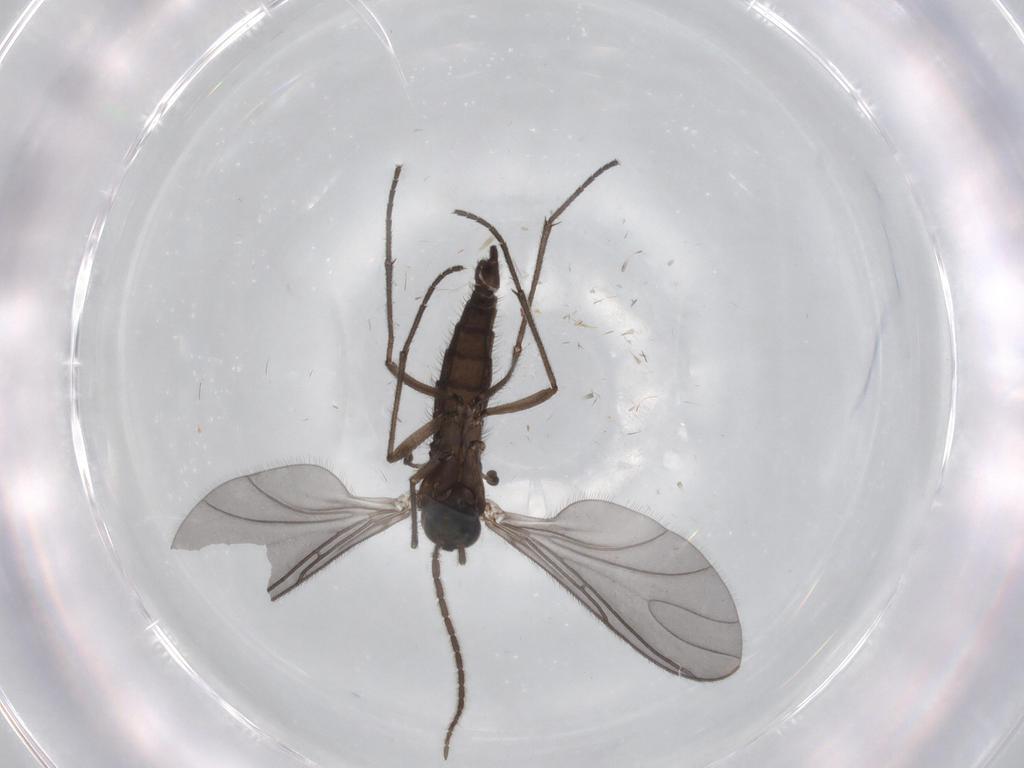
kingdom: Animalia
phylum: Arthropoda
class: Insecta
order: Diptera
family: Sciaridae
